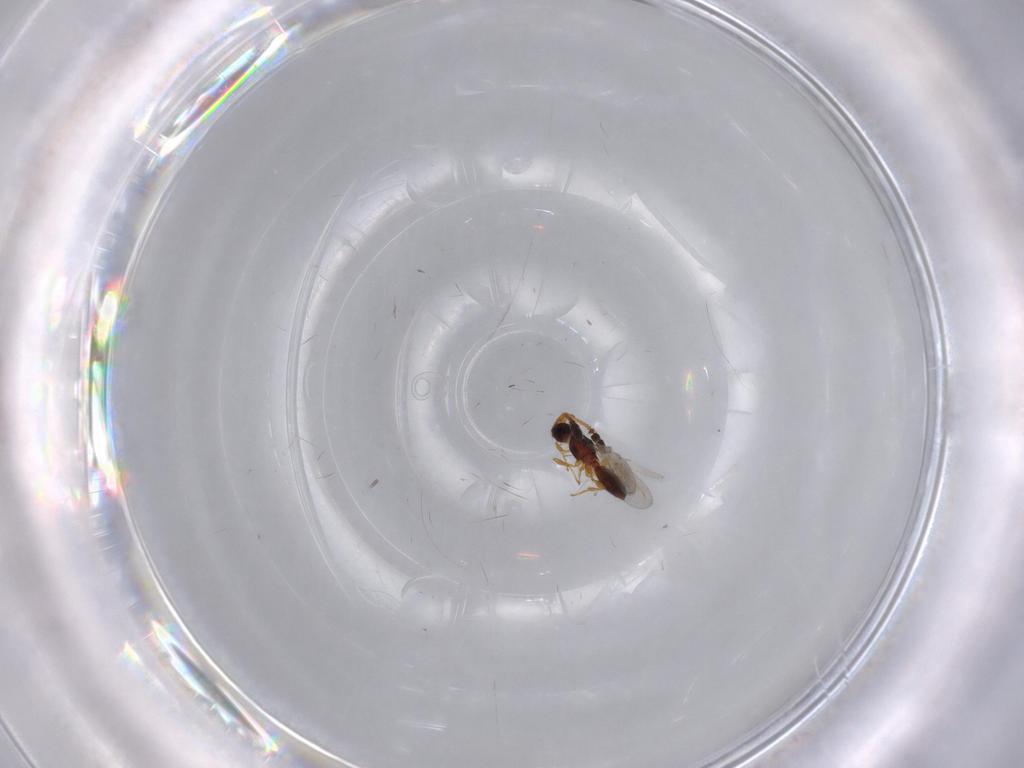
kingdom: Animalia
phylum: Arthropoda
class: Insecta
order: Hymenoptera
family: Diapriidae
